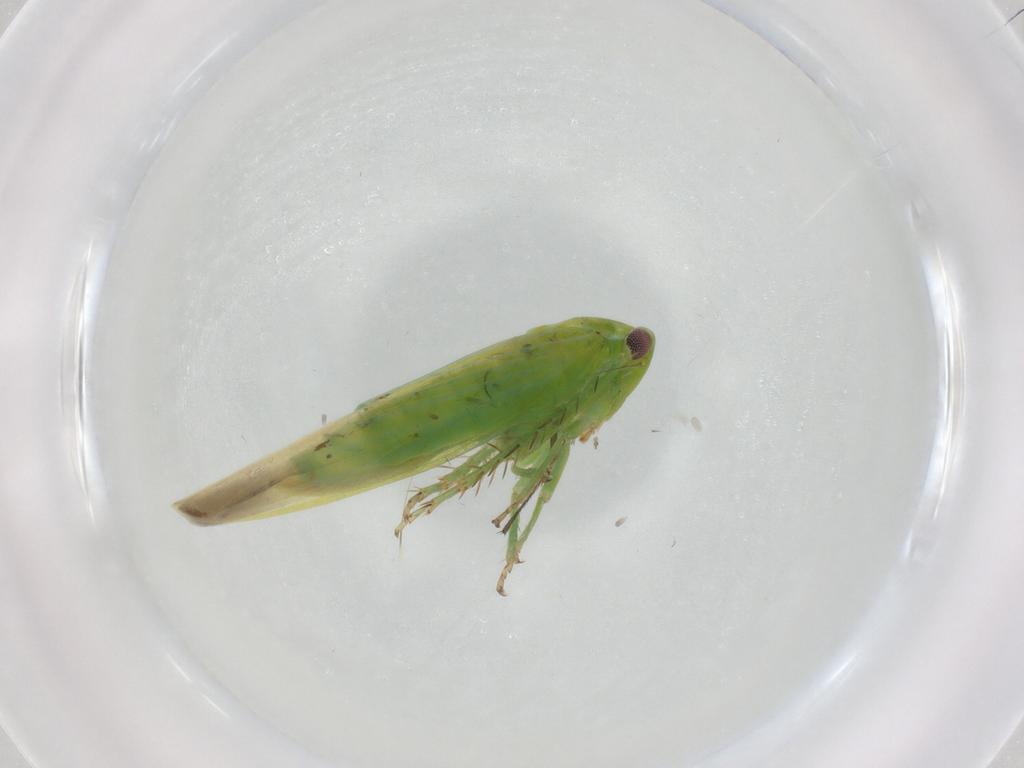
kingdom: Animalia
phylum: Arthropoda
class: Insecta
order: Hemiptera
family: Cicadellidae
